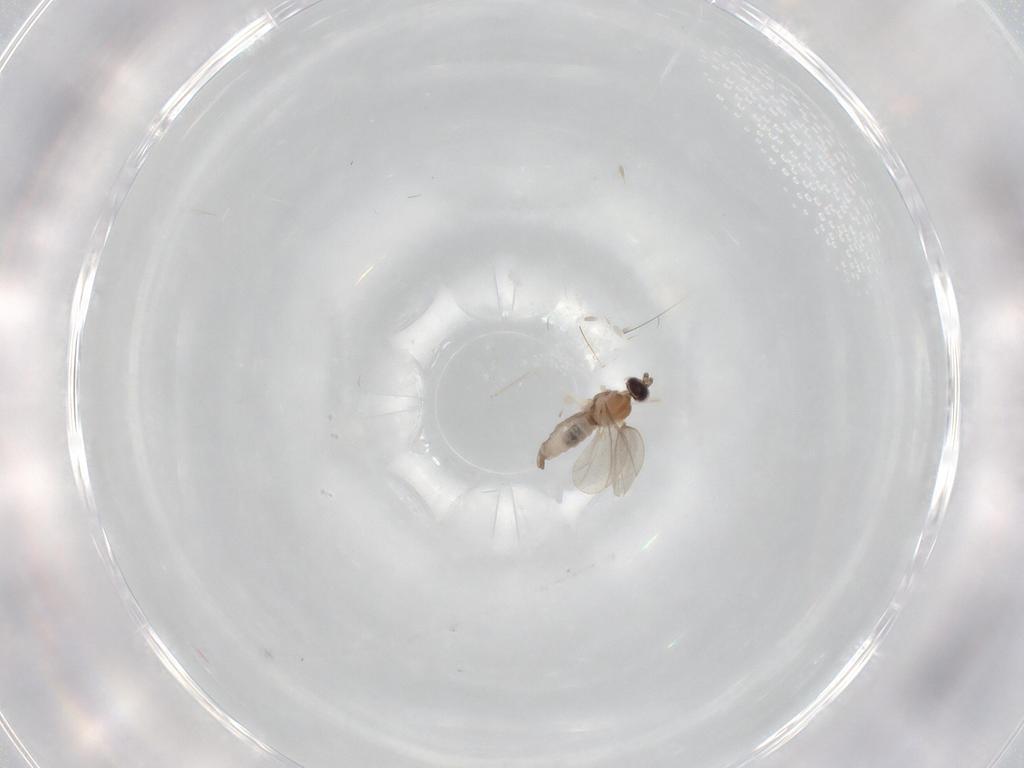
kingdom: Animalia
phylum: Arthropoda
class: Insecta
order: Diptera
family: Cecidomyiidae
